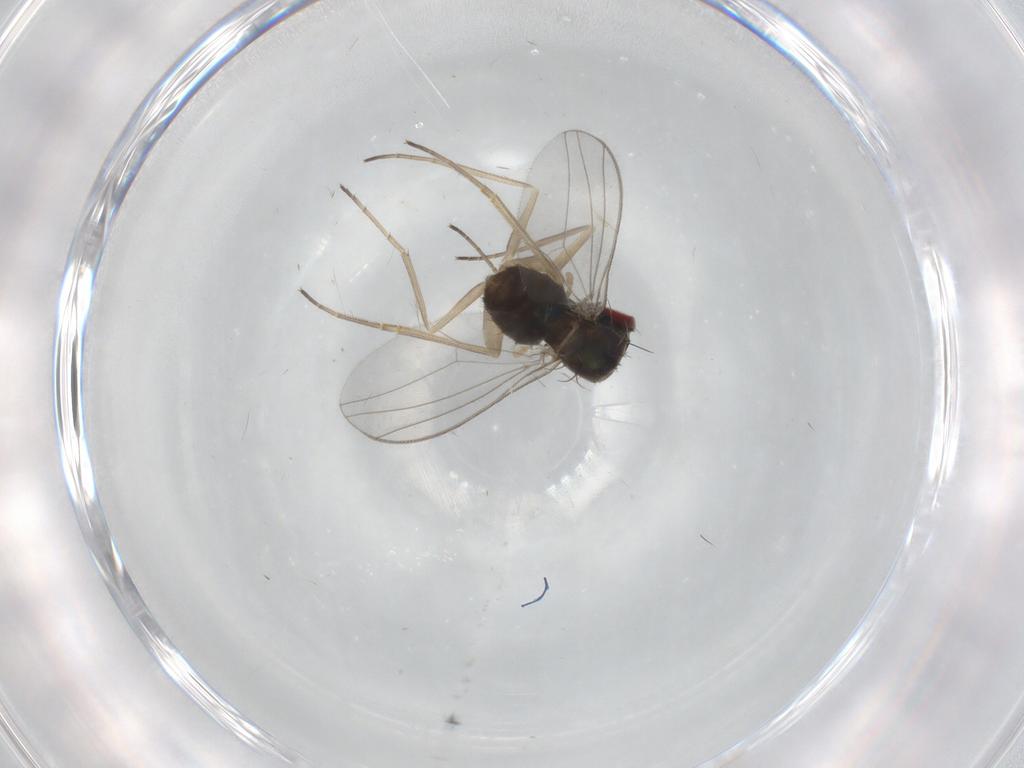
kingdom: Animalia
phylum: Arthropoda
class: Insecta
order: Diptera
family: Dolichopodidae
